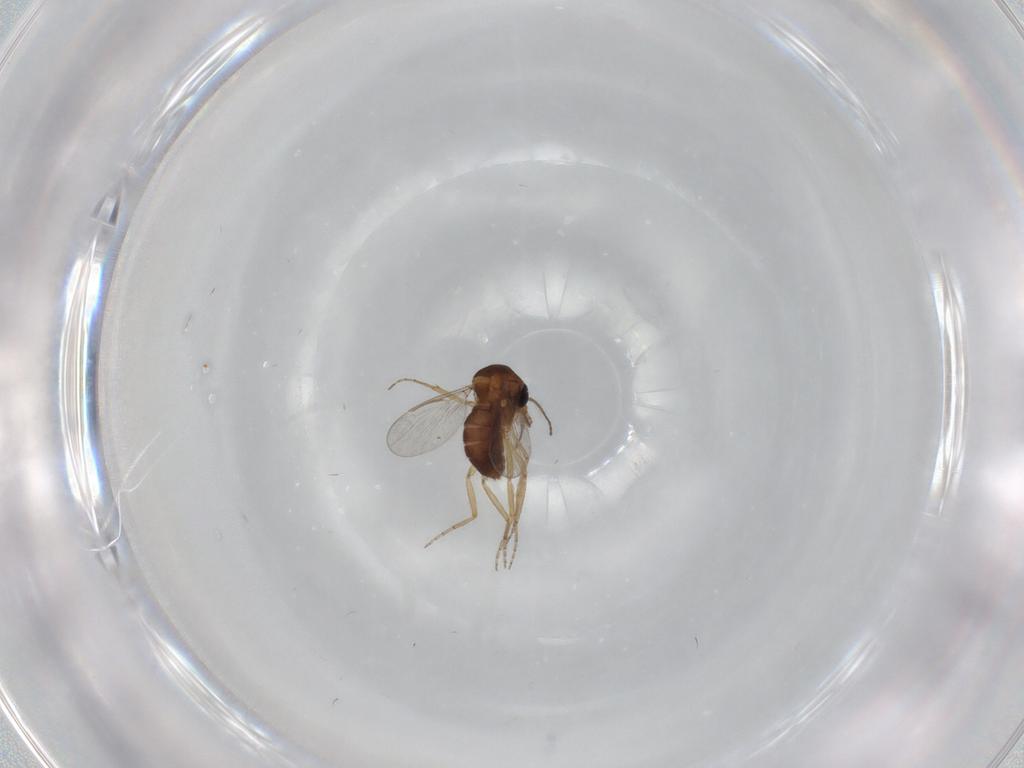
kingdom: Animalia
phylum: Arthropoda
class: Insecta
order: Diptera
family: Ceratopogonidae
